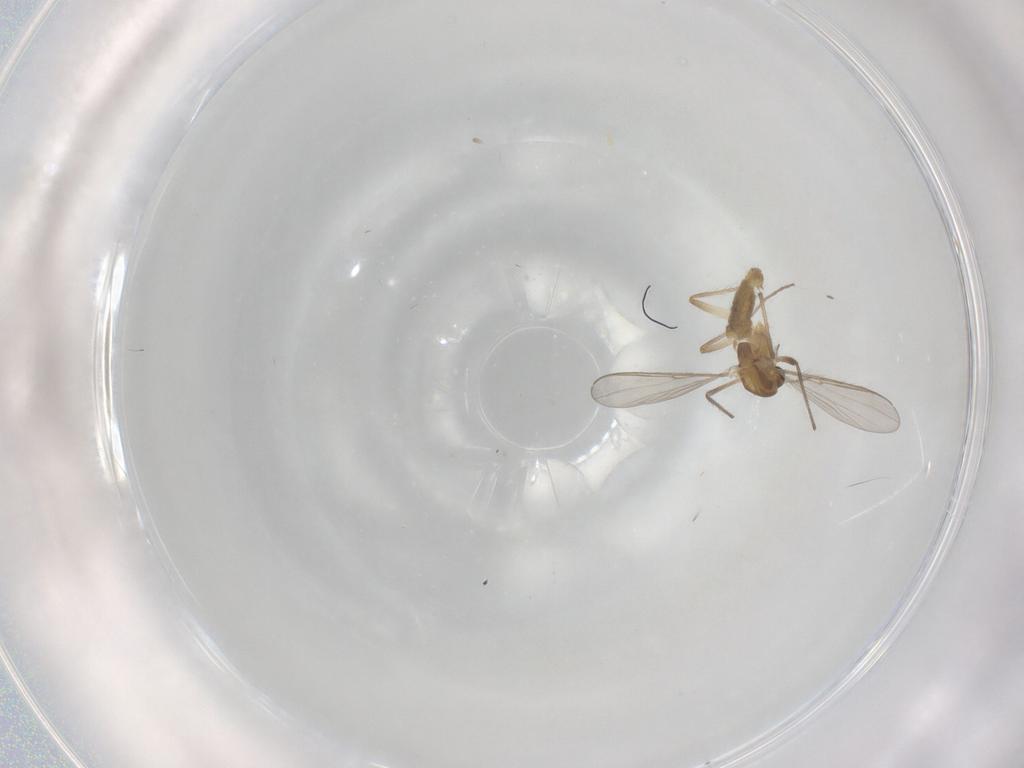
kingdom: Animalia
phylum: Arthropoda
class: Insecta
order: Diptera
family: Chironomidae
